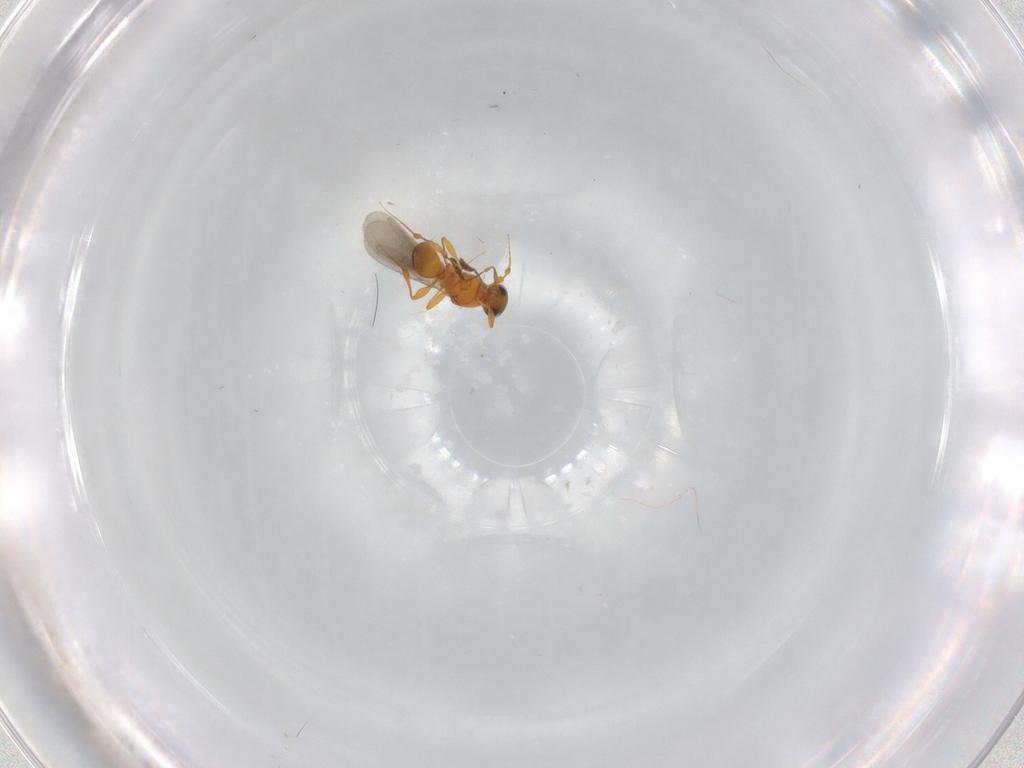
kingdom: Animalia
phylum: Arthropoda
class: Insecta
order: Hymenoptera
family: Platygastridae
